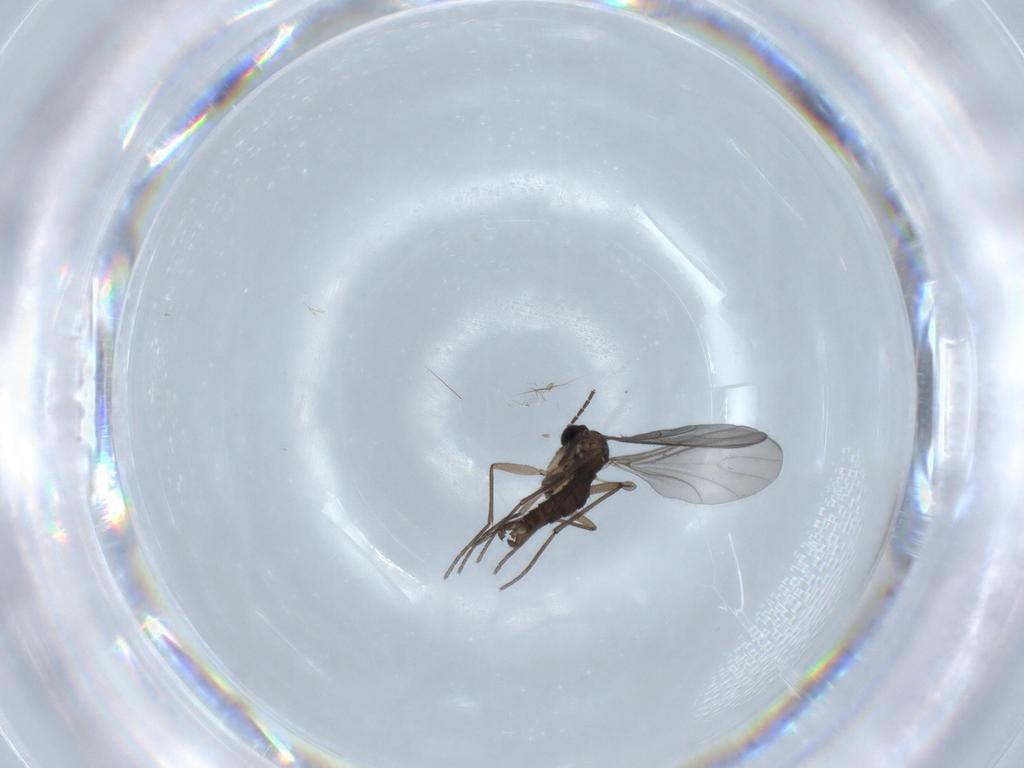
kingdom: Animalia
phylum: Arthropoda
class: Insecta
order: Diptera
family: Sciaridae
